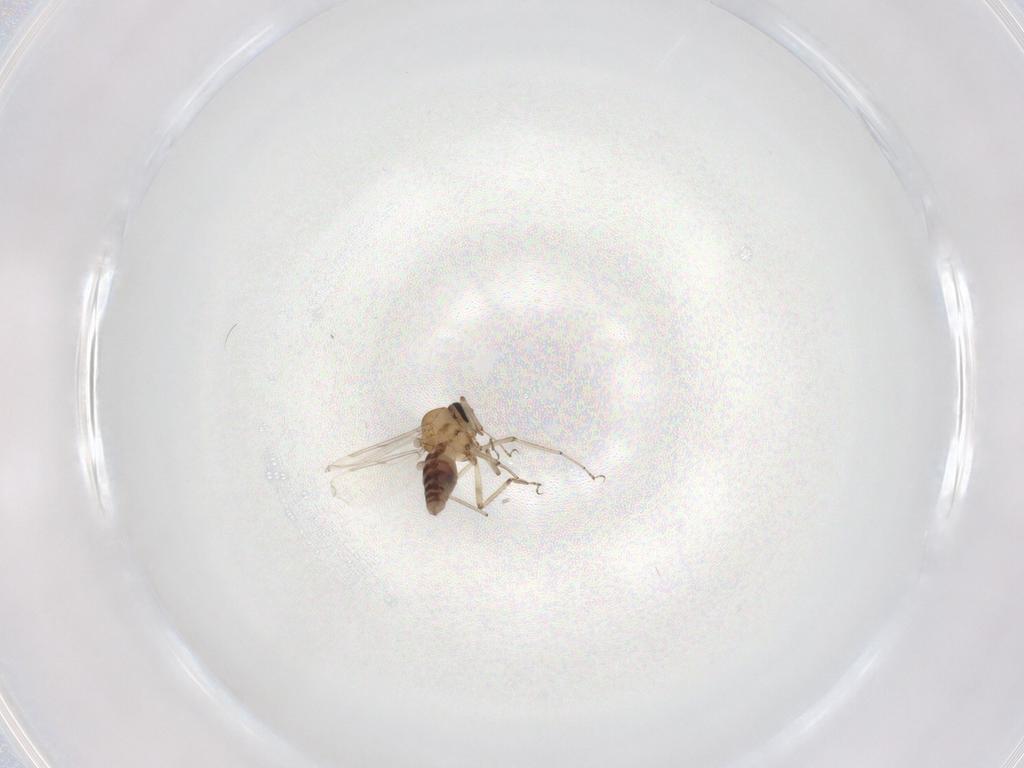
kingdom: Animalia
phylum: Arthropoda
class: Insecta
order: Diptera
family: Ceratopogonidae
